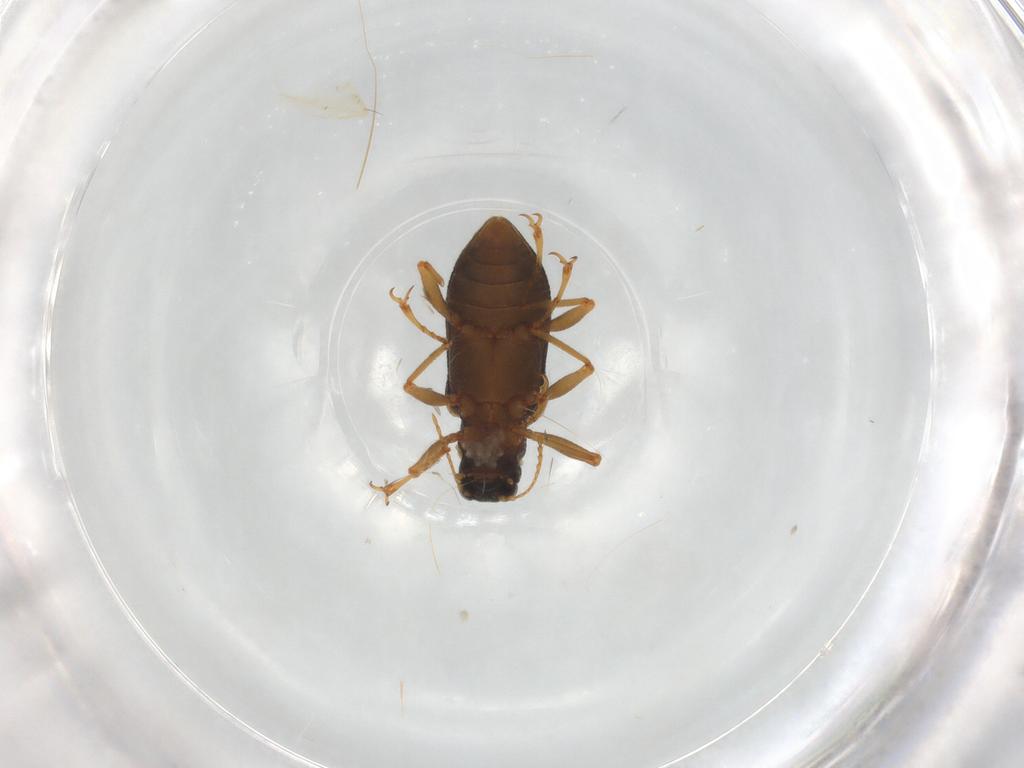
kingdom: Animalia
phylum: Arthropoda
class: Insecta
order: Coleoptera
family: Elmidae
